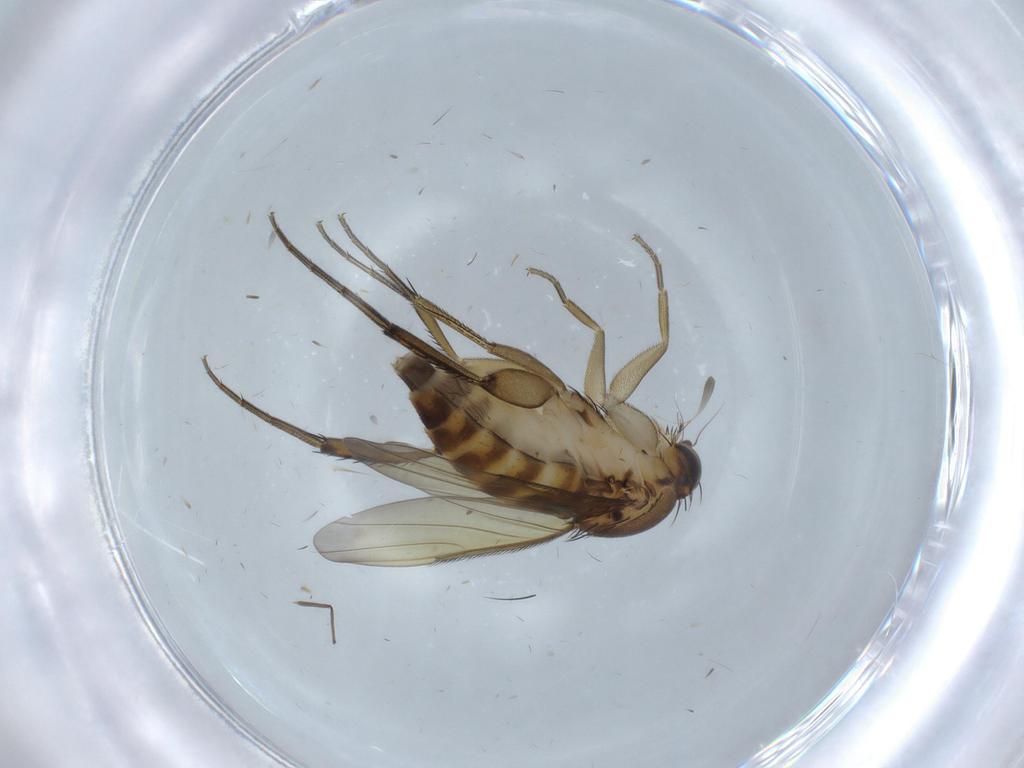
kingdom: Animalia
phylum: Arthropoda
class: Insecta
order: Diptera
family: Phoridae
